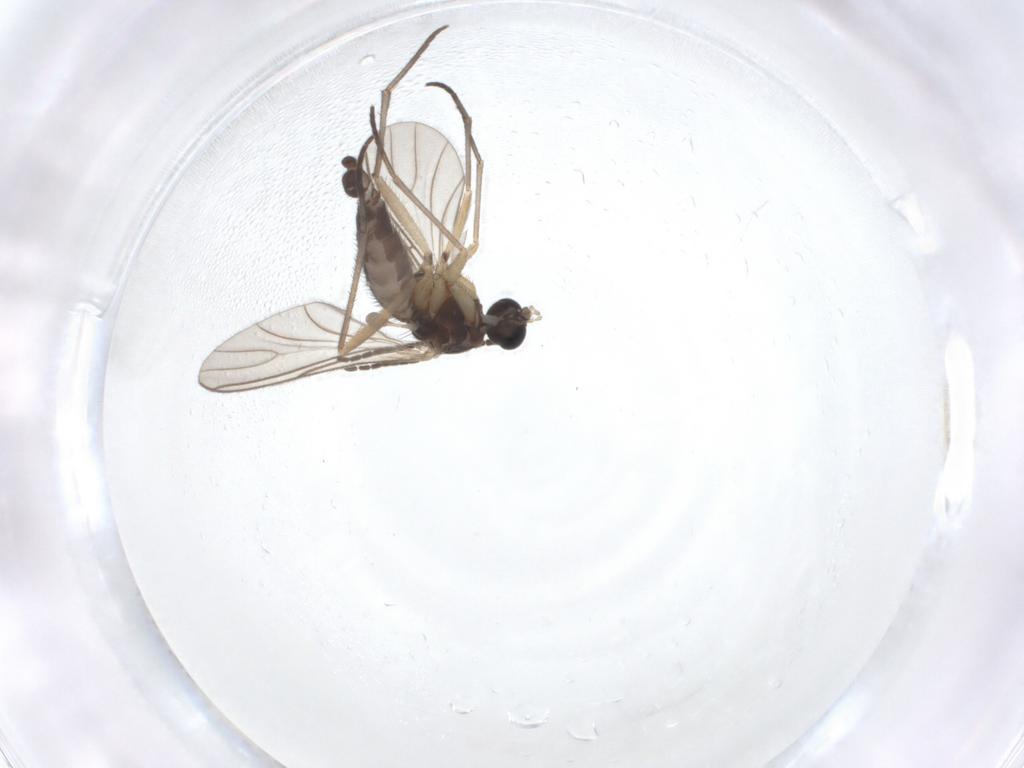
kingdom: Animalia
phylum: Arthropoda
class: Insecta
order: Diptera
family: Sciaridae
